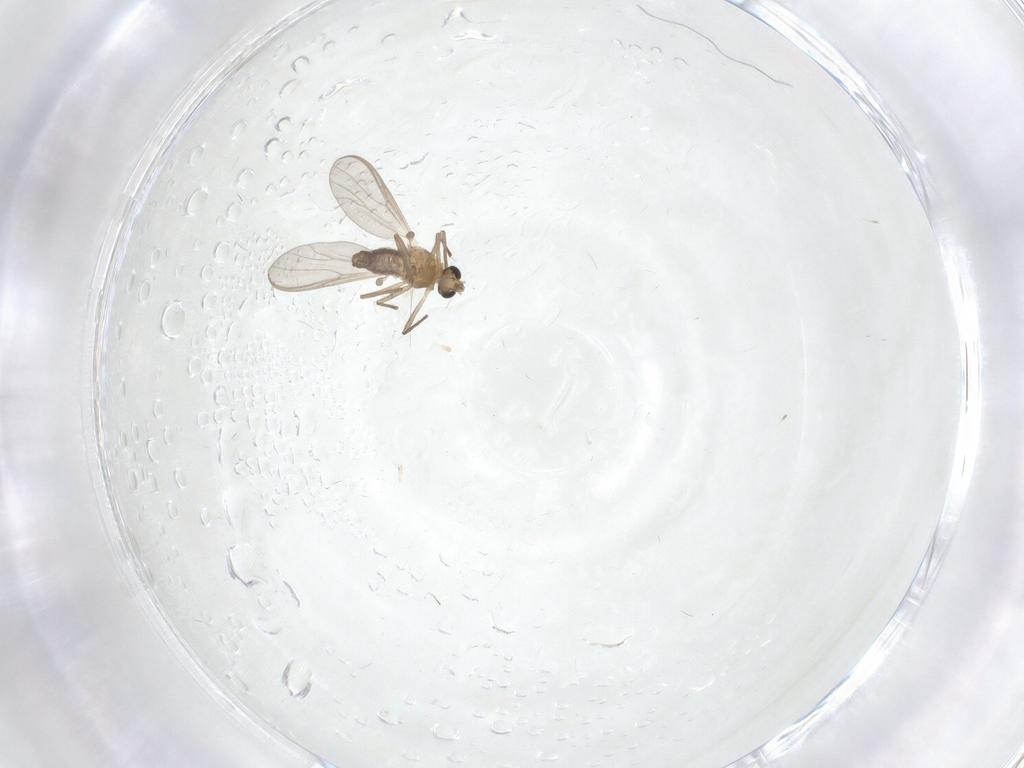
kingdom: Animalia
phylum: Arthropoda
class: Insecta
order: Diptera
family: Chironomidae
